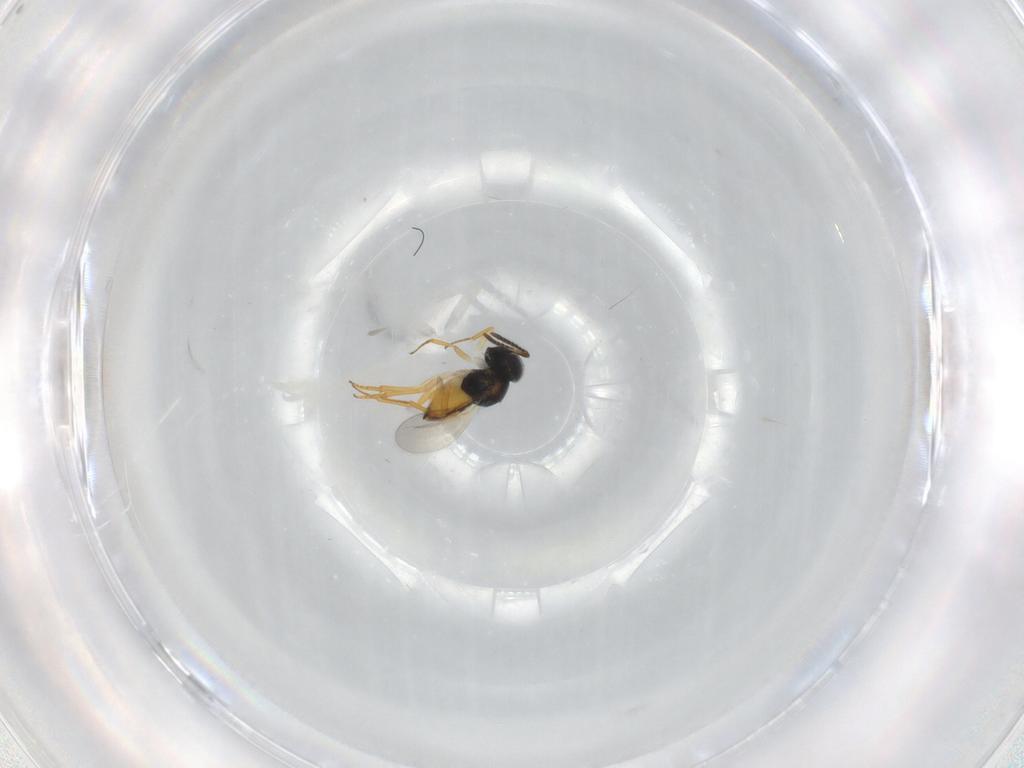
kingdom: Animalia
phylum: Arthropoda
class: Insecta
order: Hymenoptera
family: Encyrtidae
